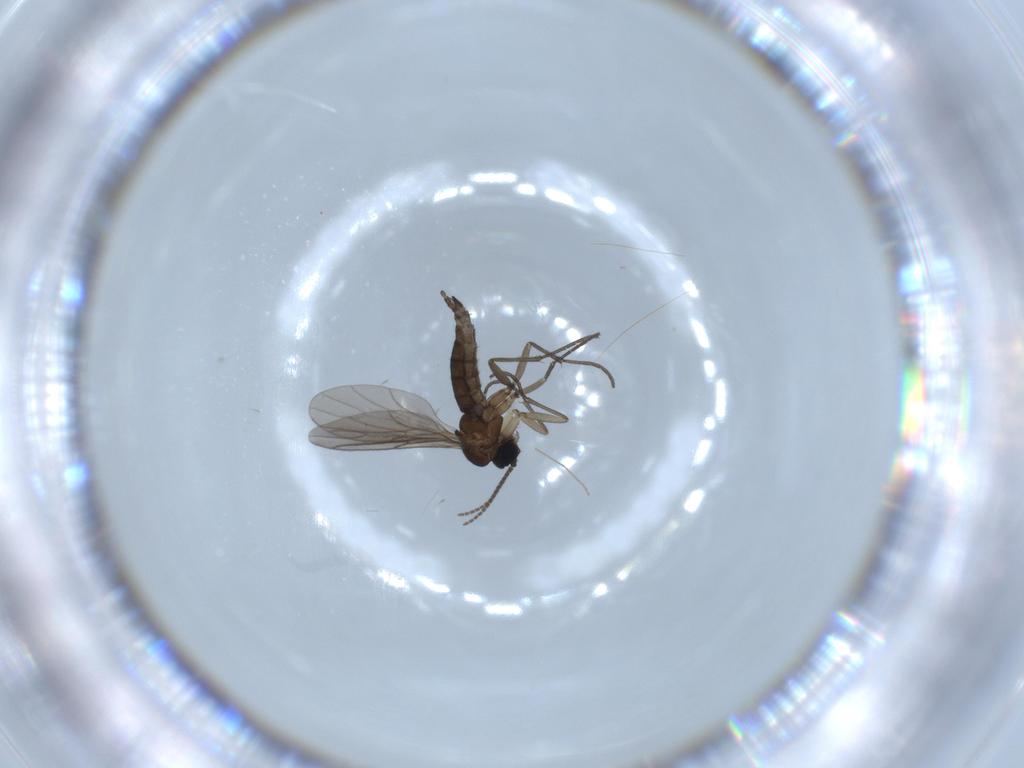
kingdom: Animalia
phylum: Arthropoda
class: Insecta
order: Diptera
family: Sciaridae
